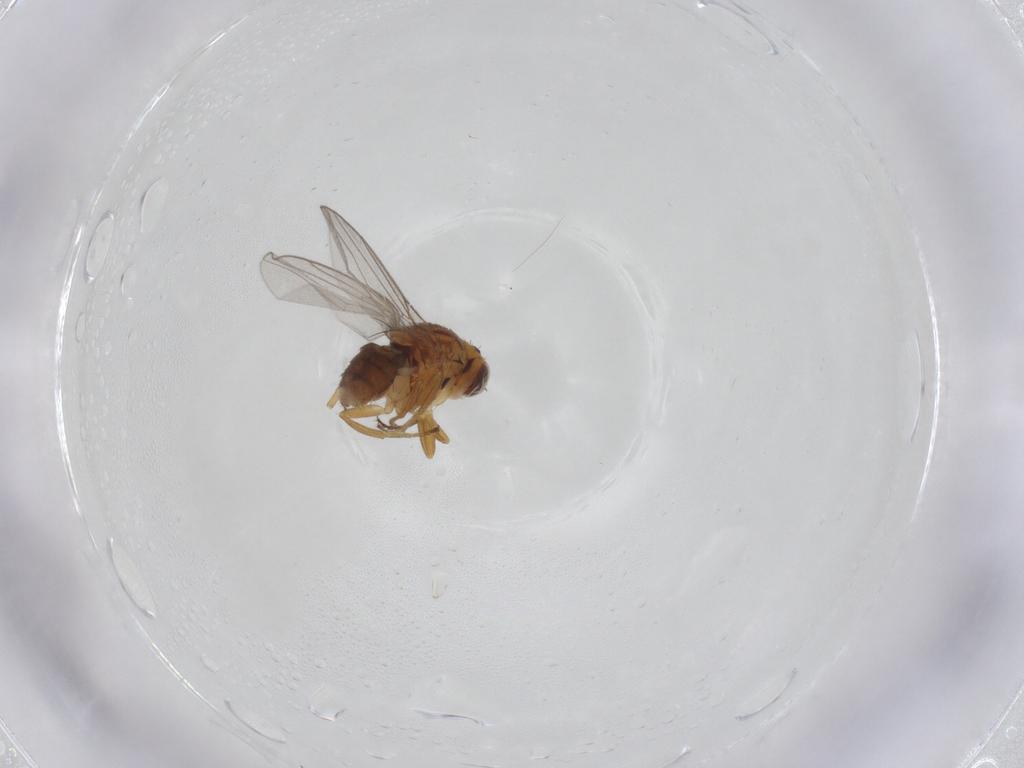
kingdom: Animalia
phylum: Arthropoda
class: Insecta
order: Diptera
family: Chloropidae
